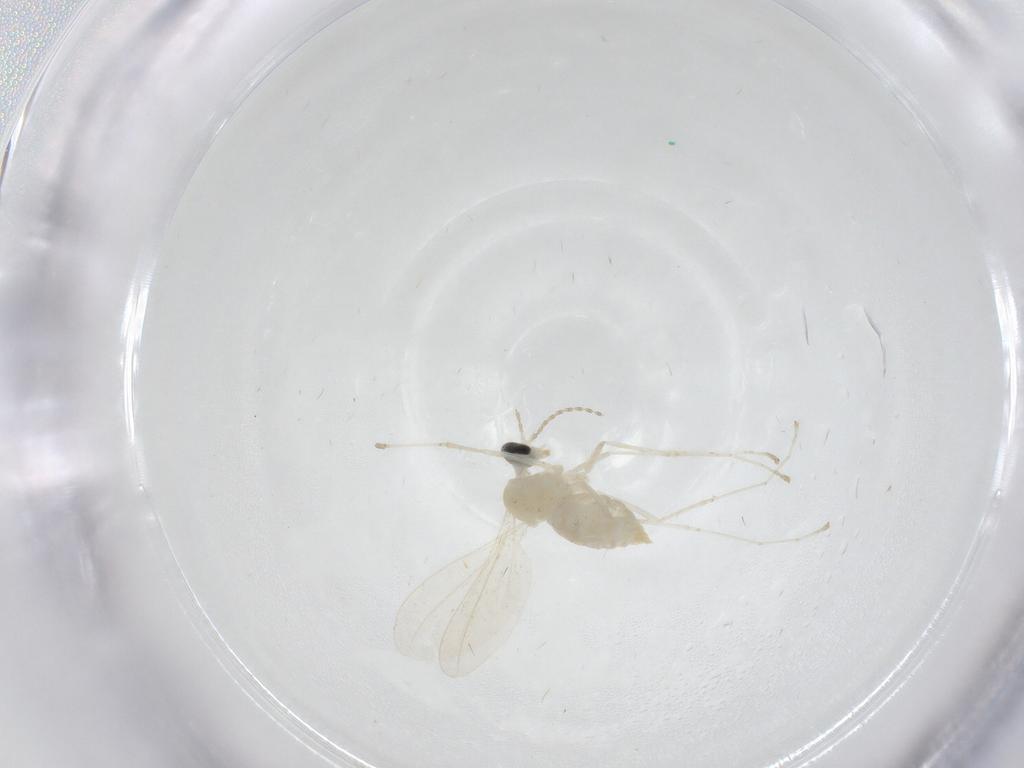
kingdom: Animalia
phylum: Arthropoda
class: Insecta
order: Diptera
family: Cecidomyiidae
